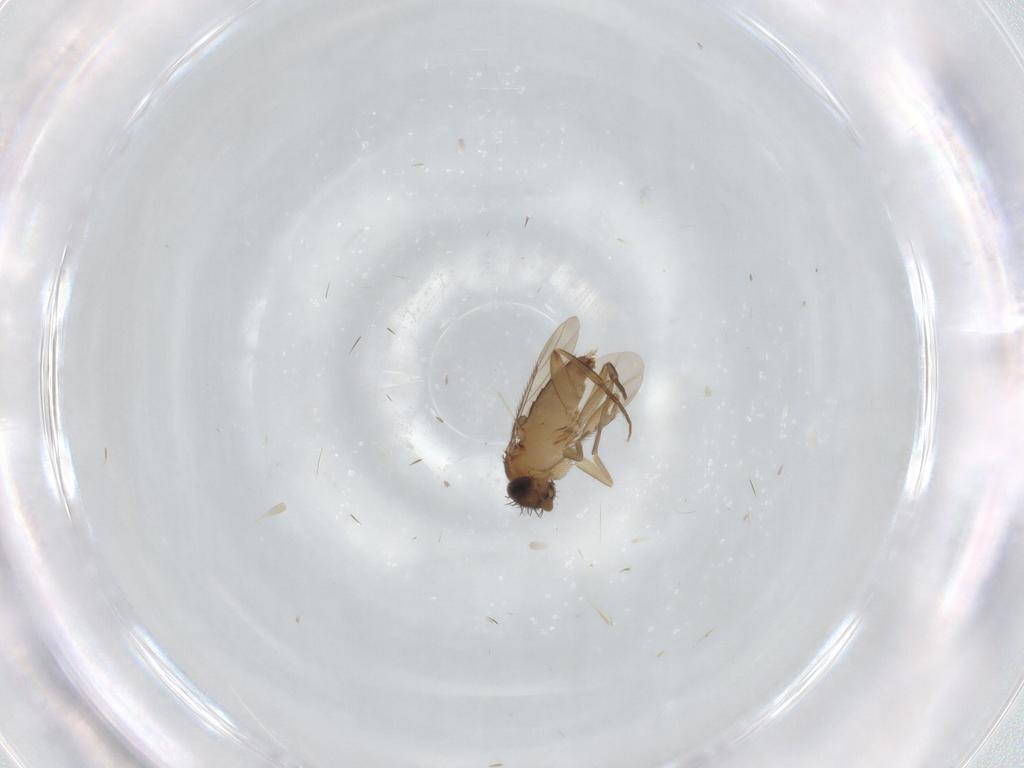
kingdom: Animalia
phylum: Arthropoda
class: Insecta
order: Diptera
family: Phoridae
